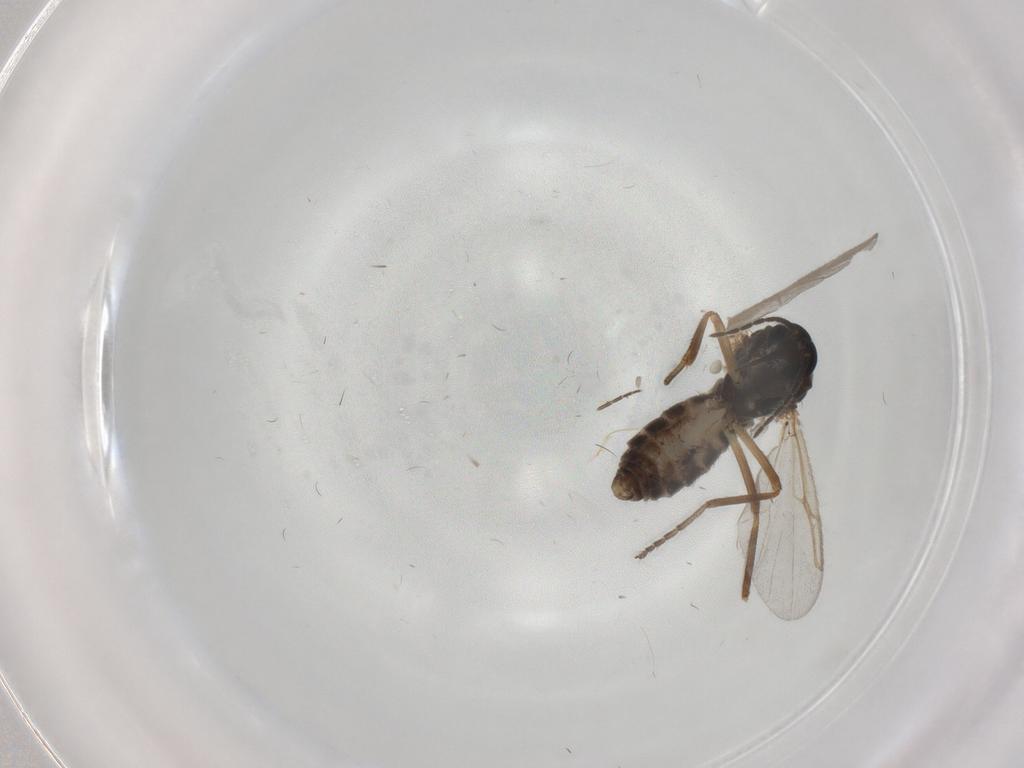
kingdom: Animalia
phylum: Arthropoda
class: Insecta
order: Diptera
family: Ceratopogonidae
